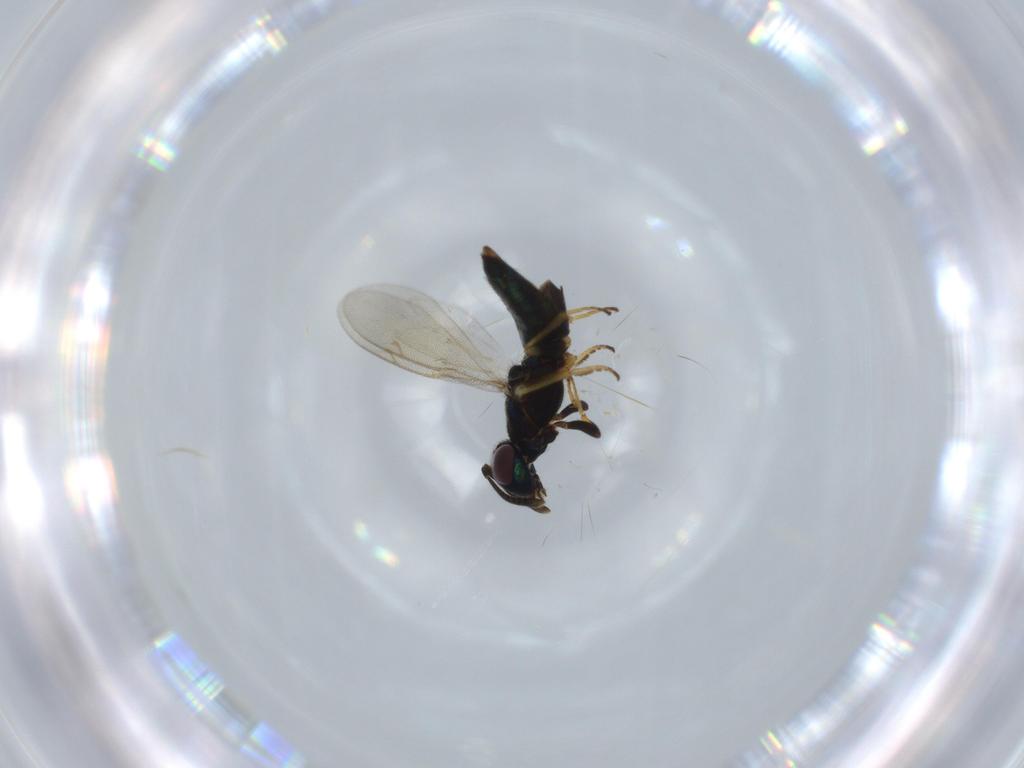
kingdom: Animalia
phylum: Arthropoda
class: Insecta
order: Hymenoptera
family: Eupelmidae
